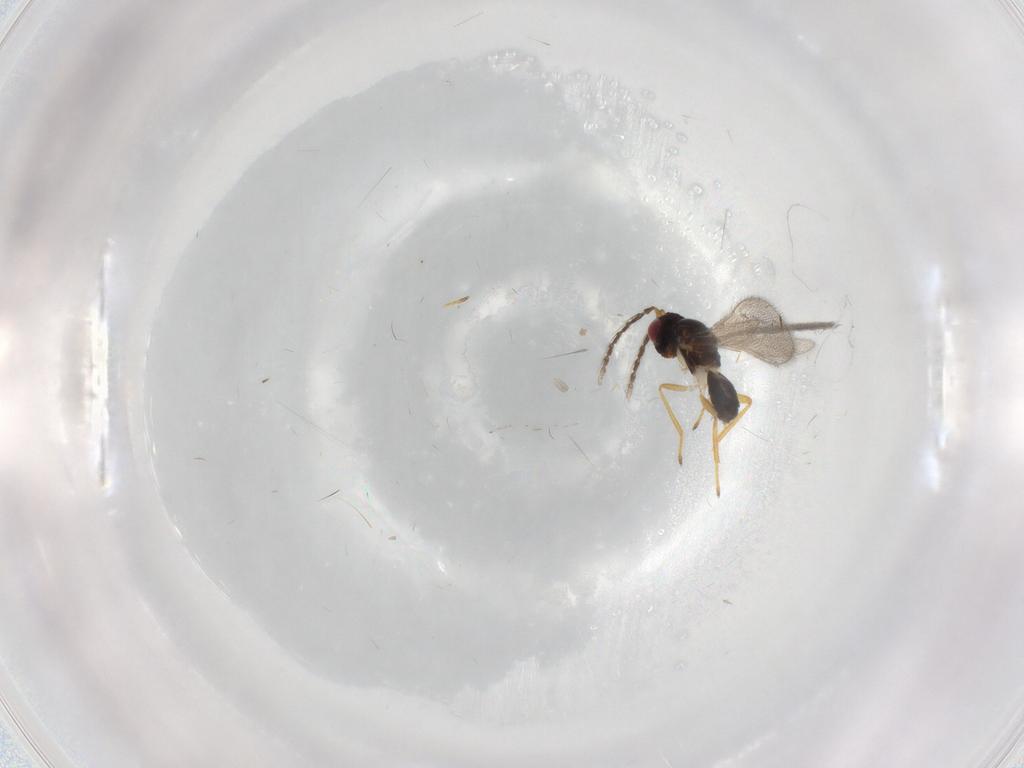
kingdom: Animalia
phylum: Arthropoda
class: Insecta
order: Hymenoptera
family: Eulophidae
